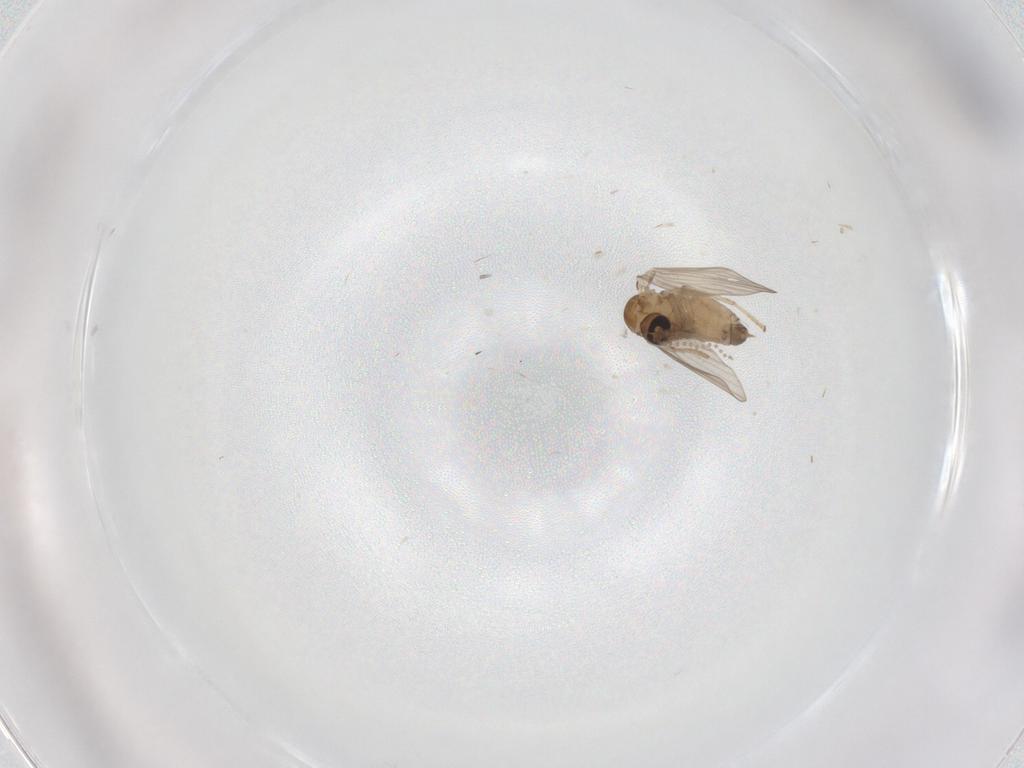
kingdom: Animalia
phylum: Arthropoda
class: Insecta
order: Diptera
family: Psychodidae
